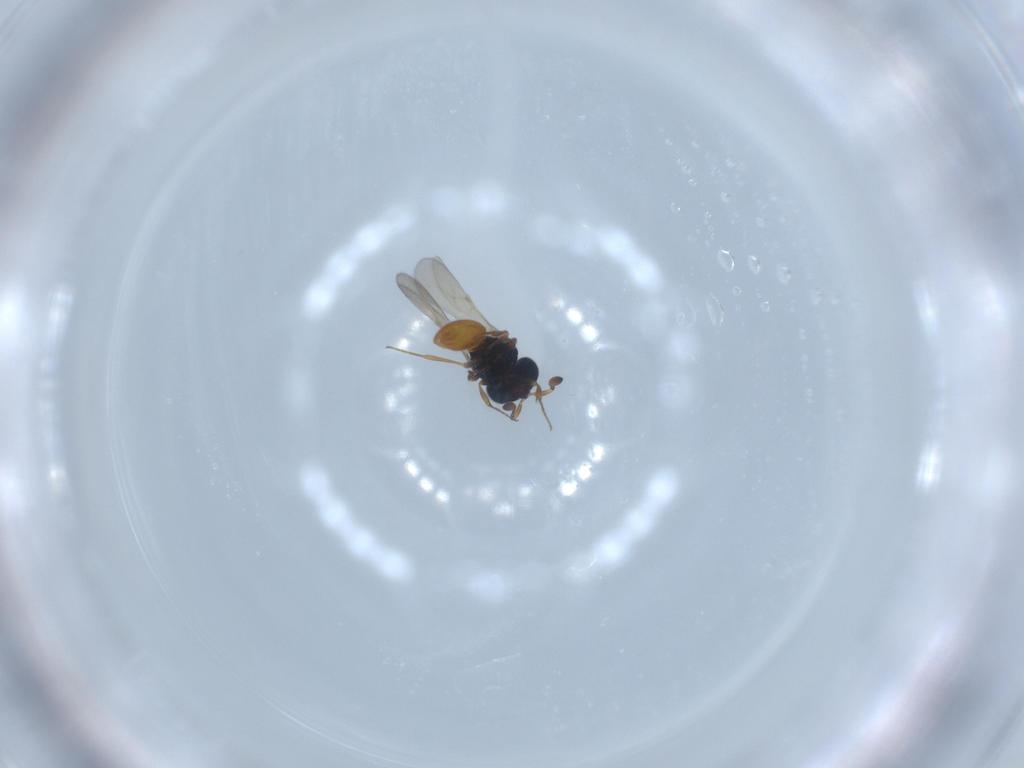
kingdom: Animalia
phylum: Arthropoda
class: Insecta
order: Hymenoptera
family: Scelionidae
